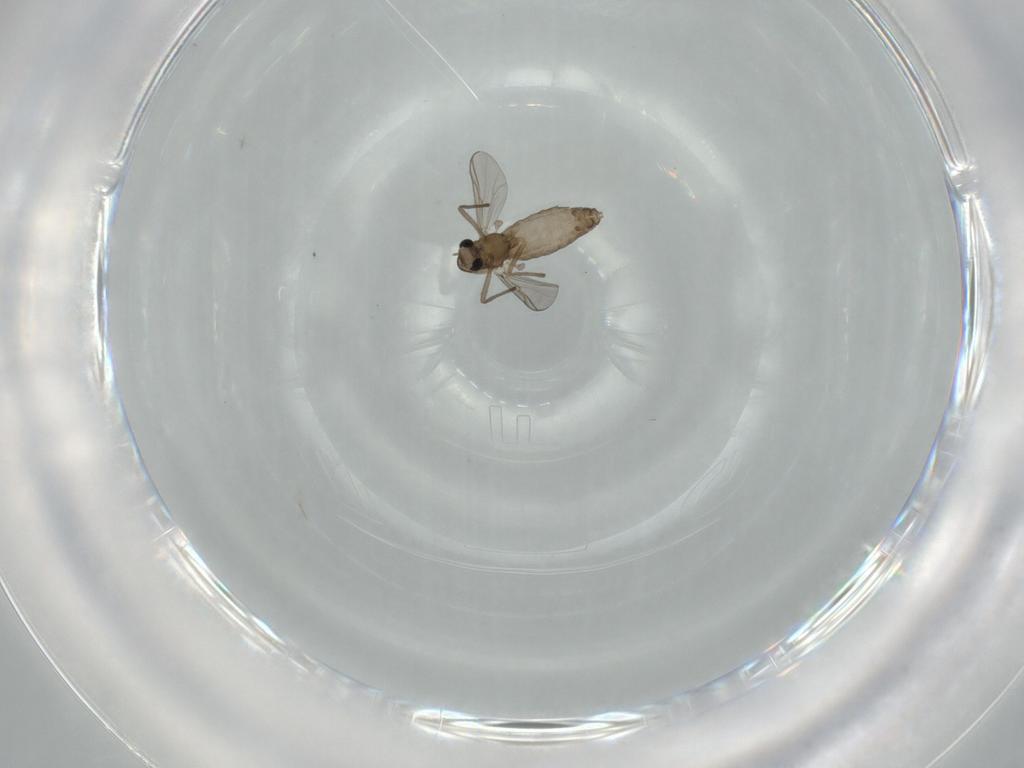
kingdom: Animalia
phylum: Arthropoda
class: Insecta
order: Diptera
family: Chironomidae
